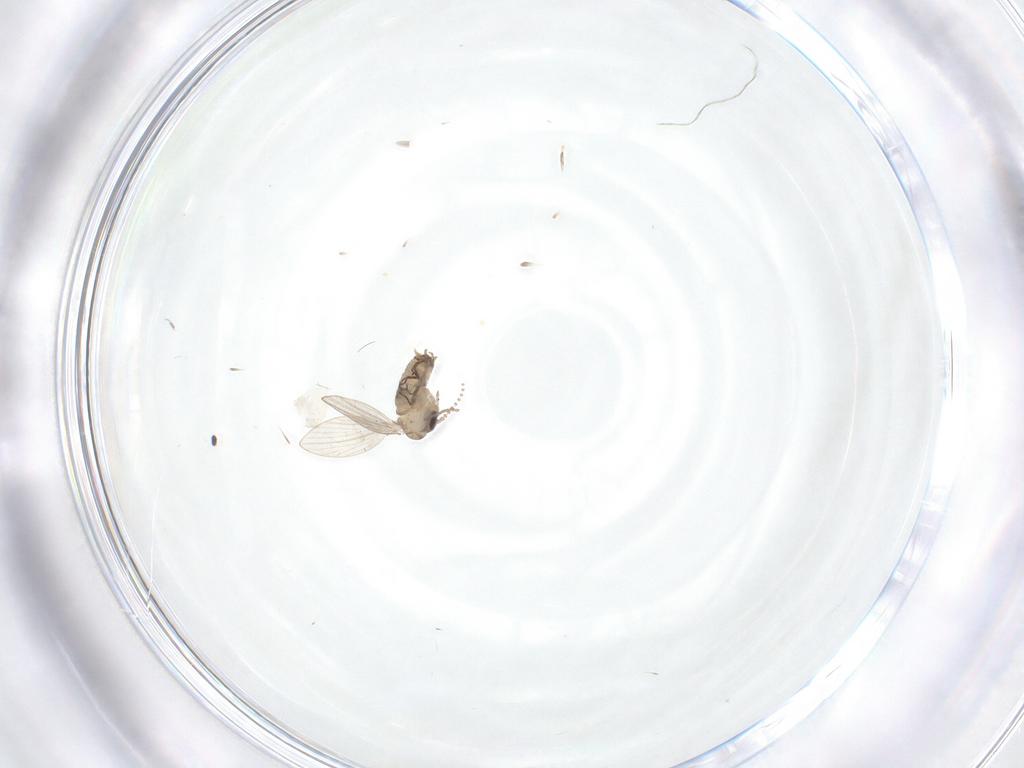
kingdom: Animalia
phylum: Arthropoda
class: Insecta
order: Diptera
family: Psychodidae
